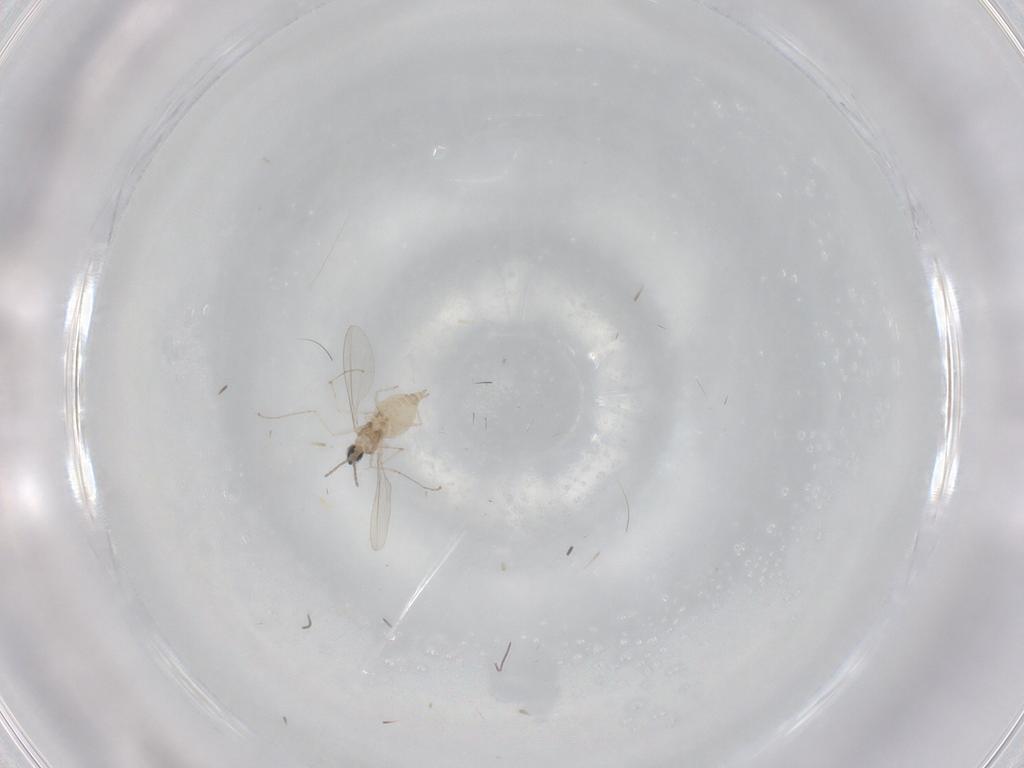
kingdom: Animalia
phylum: Arthropoda
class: Insecta
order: Diptera
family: Cecidomyiidae
